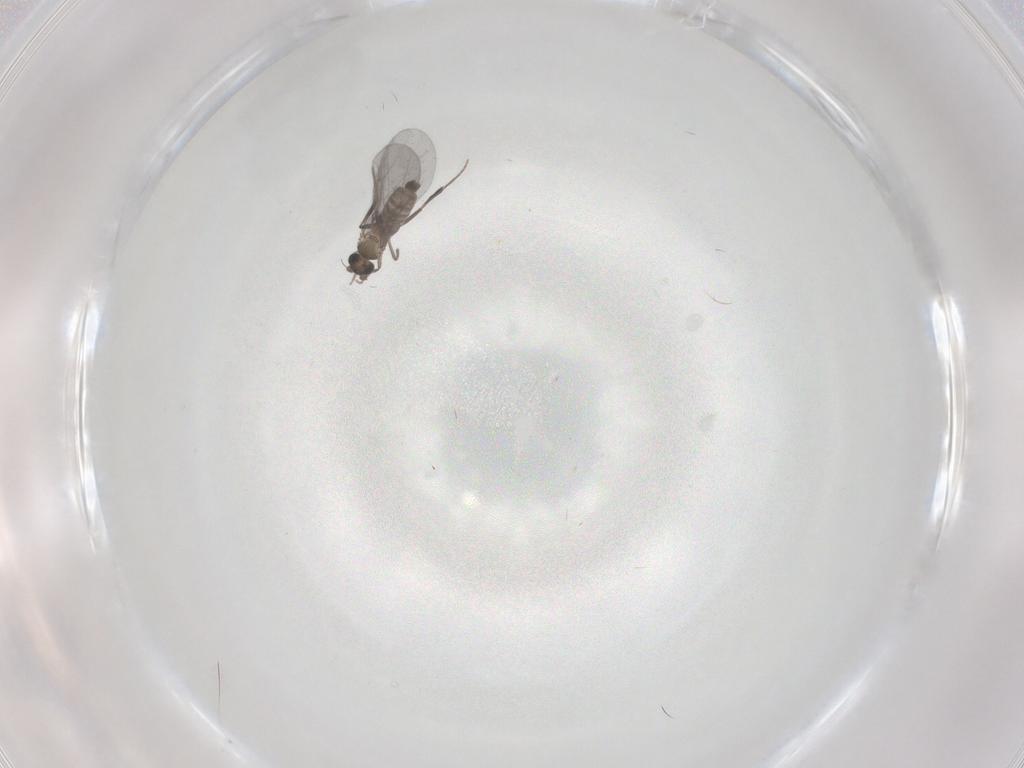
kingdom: Animalia
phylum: Arthropoda
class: Insecta
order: Diptera
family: Phoridae
